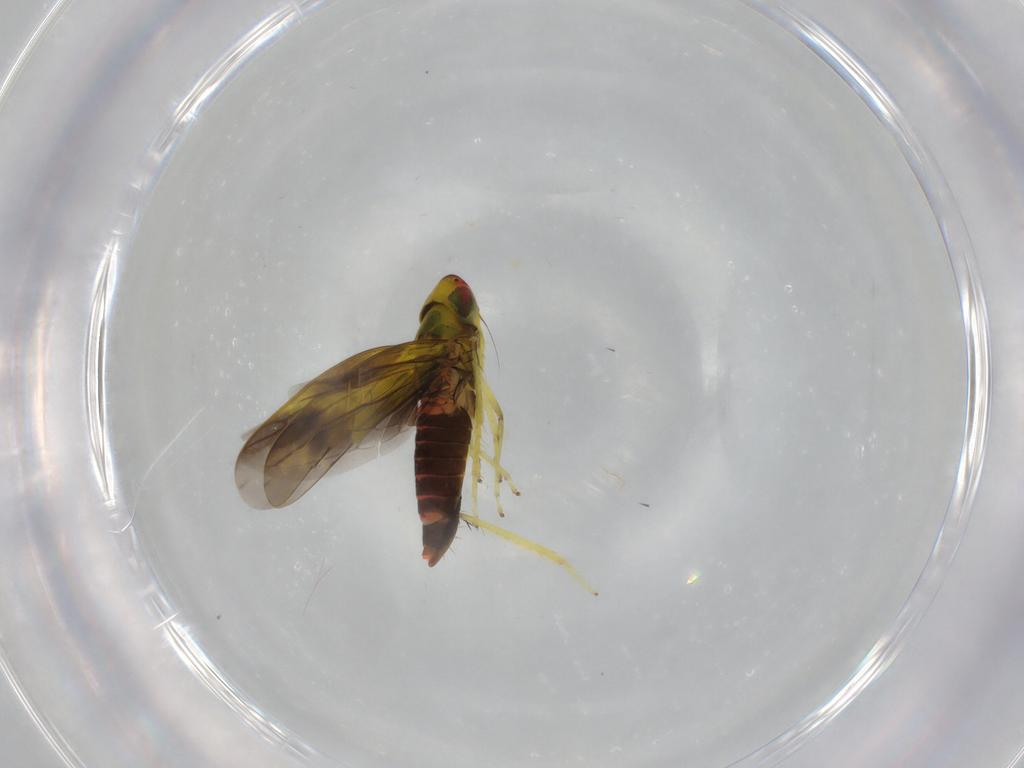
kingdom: Animalia
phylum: Arthropoda
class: Insecta
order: Hemiptera
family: Cicadellidae
